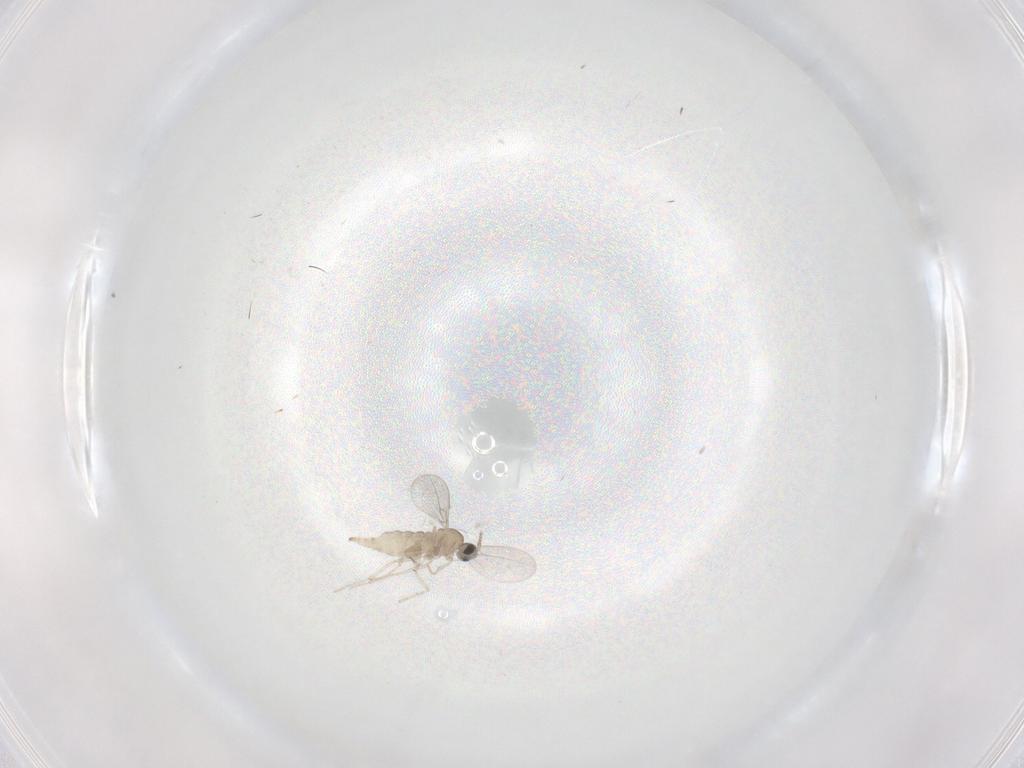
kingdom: Animalia
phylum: Arthropoda
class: Insecta
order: Diptera
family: Cecidomyiidae
